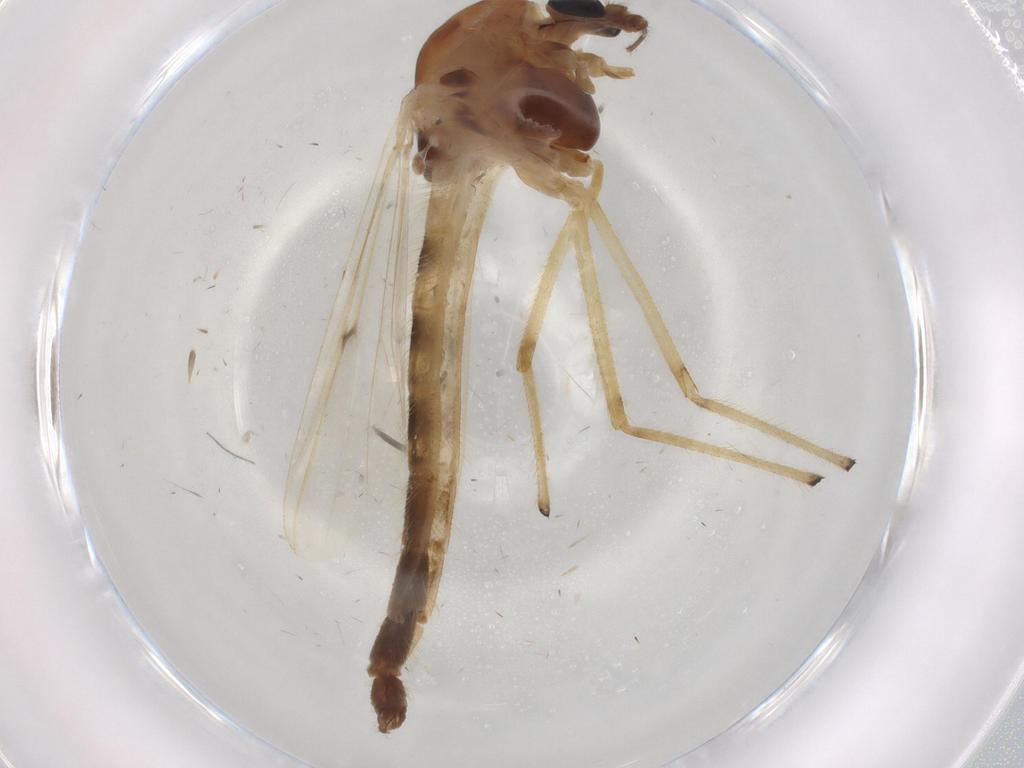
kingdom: Animalia
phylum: Arthropoda
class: Insecta
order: Diptera
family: Chironomidae
